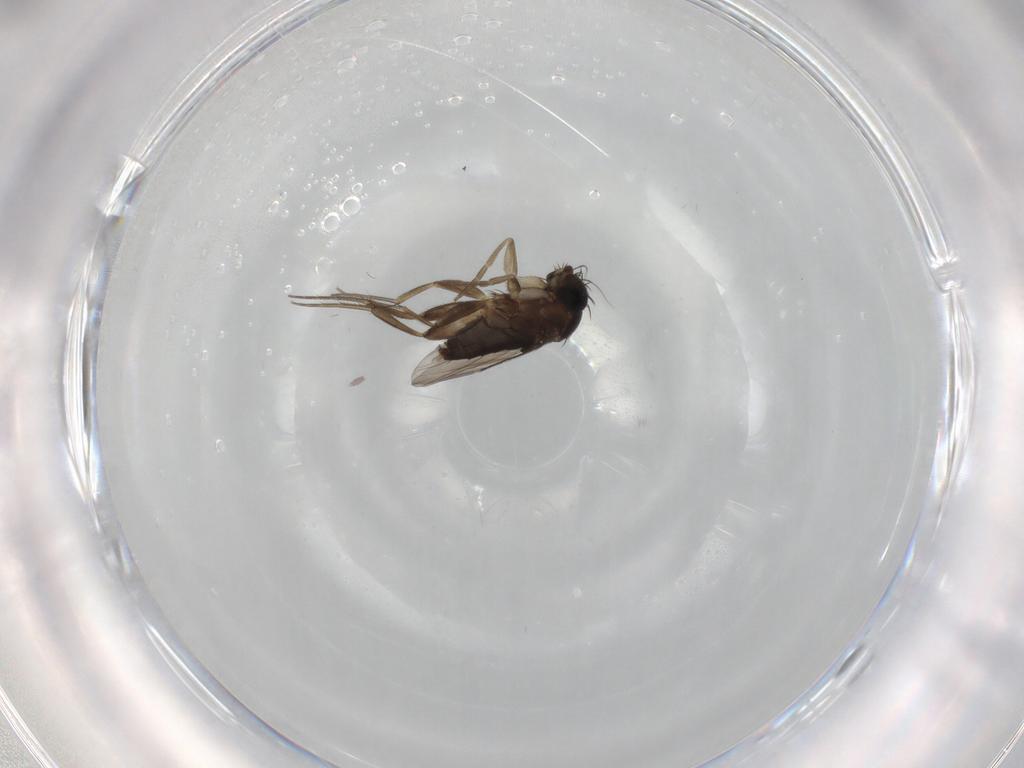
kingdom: Animalia
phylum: Arthropoda
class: Insecta
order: Diptera
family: Phoridae
